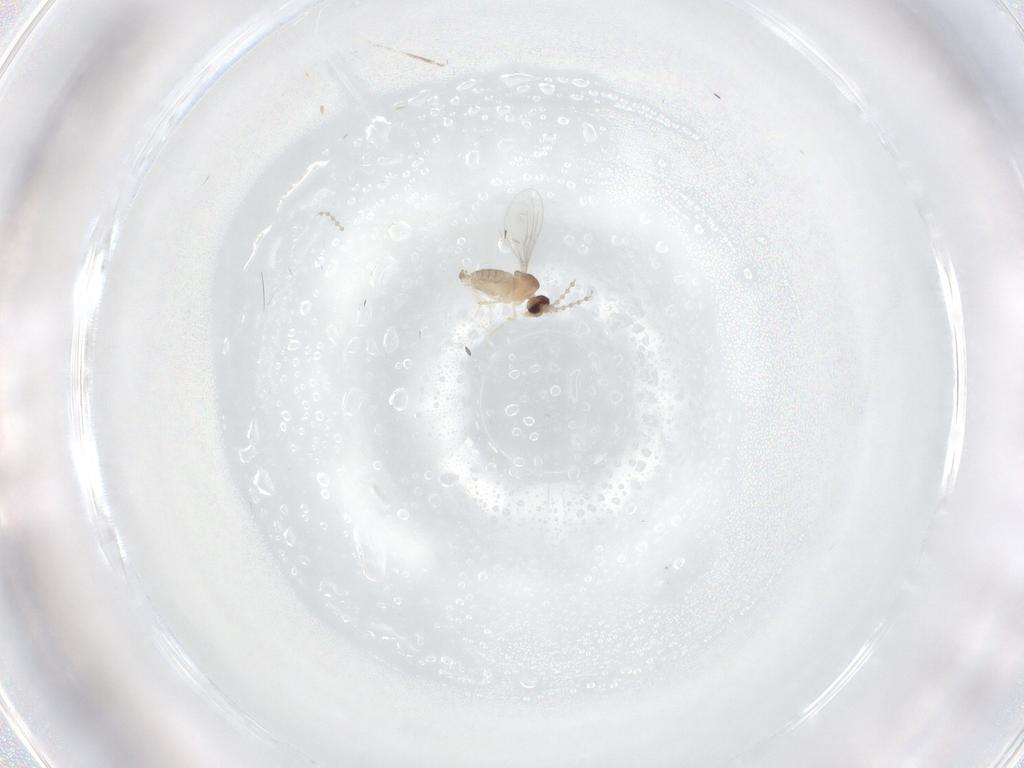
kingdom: Animalia
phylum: Arthropoda
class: Insecta
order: Diptera
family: Cecidomyiidae
